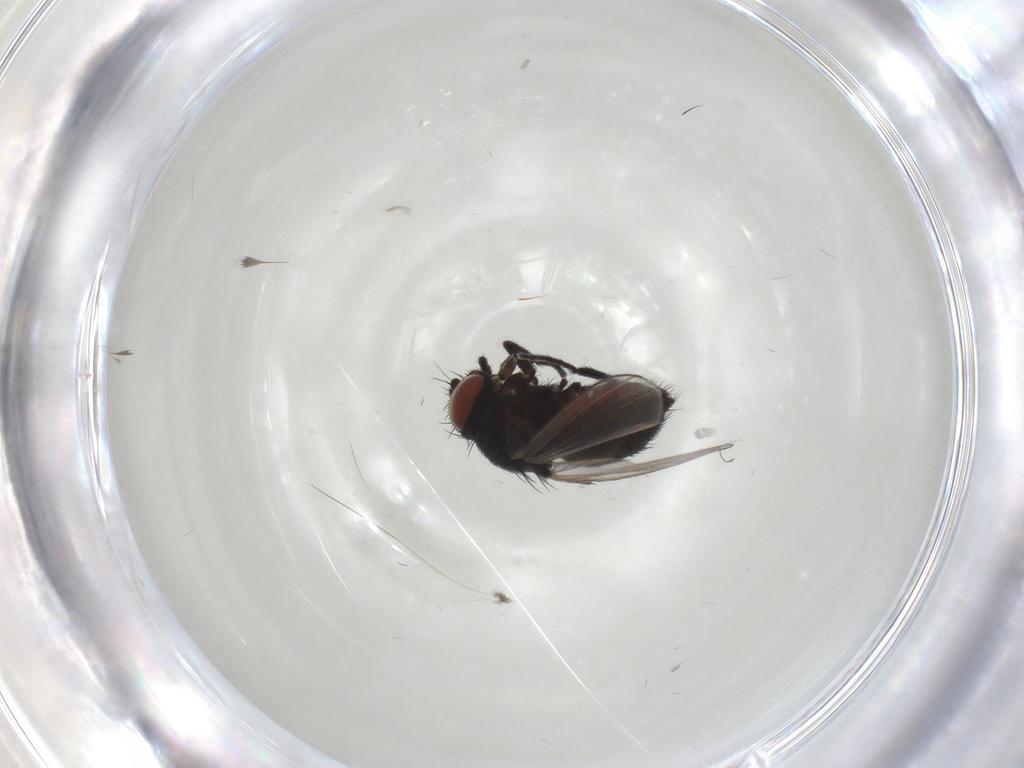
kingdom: Animalia
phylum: Arthropoda
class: Insecta
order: Diptera
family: Milichiidae
